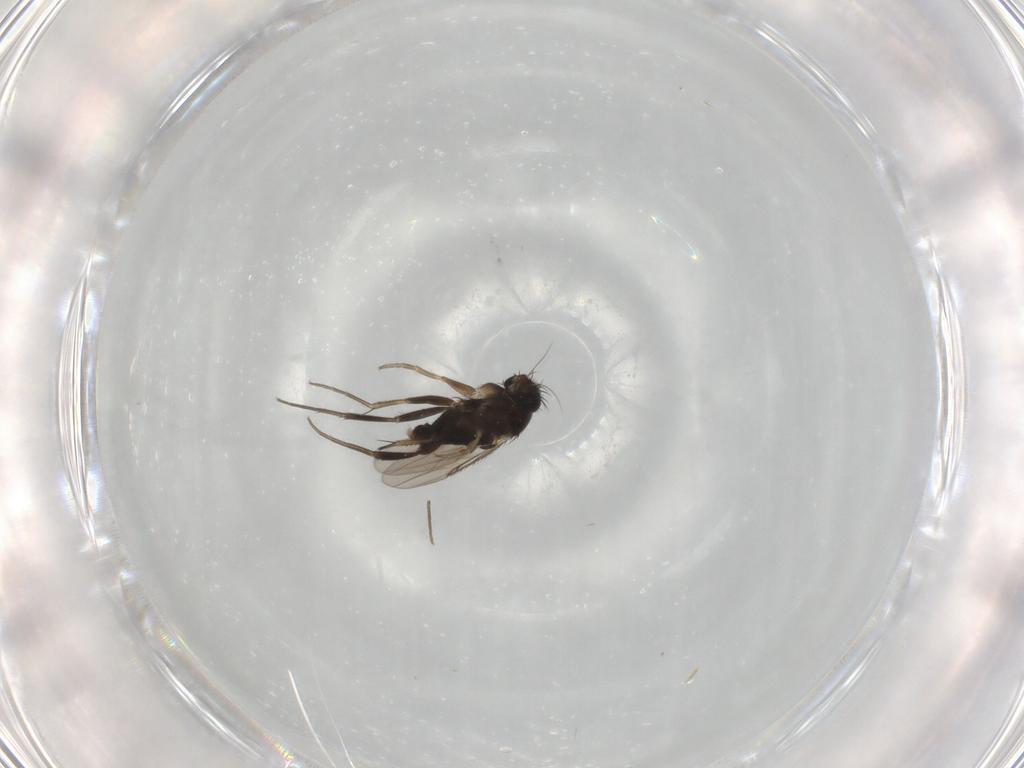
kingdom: Animalia
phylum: Arthropoda
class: Insecta
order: Diptera
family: Phoridae
